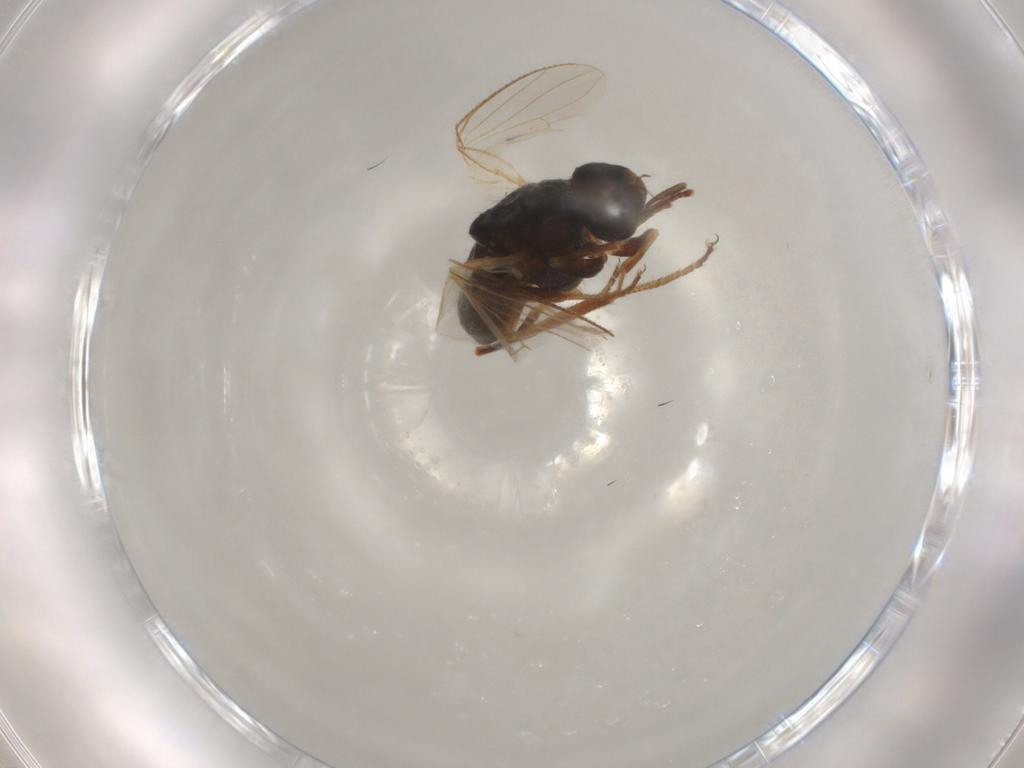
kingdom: Animalia
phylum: Arthropoda
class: Insecta
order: Diptera
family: Muscidae
